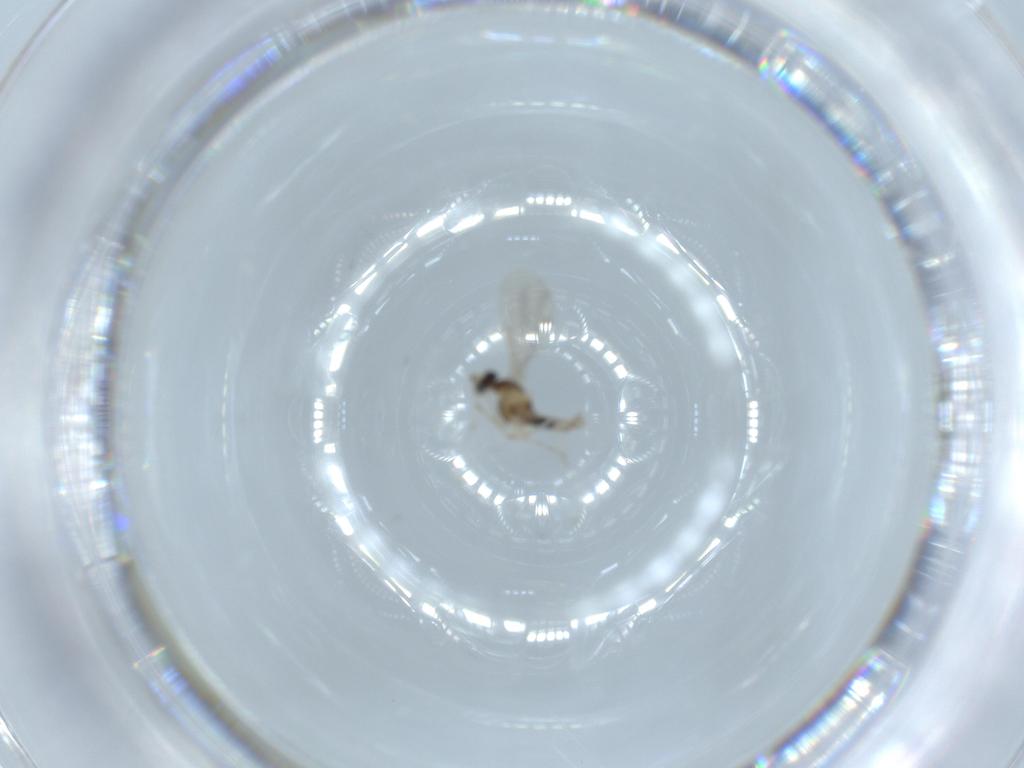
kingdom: Animalia
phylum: Arthropoda
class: Insecta
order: Diptera
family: Cecidomyiidae
